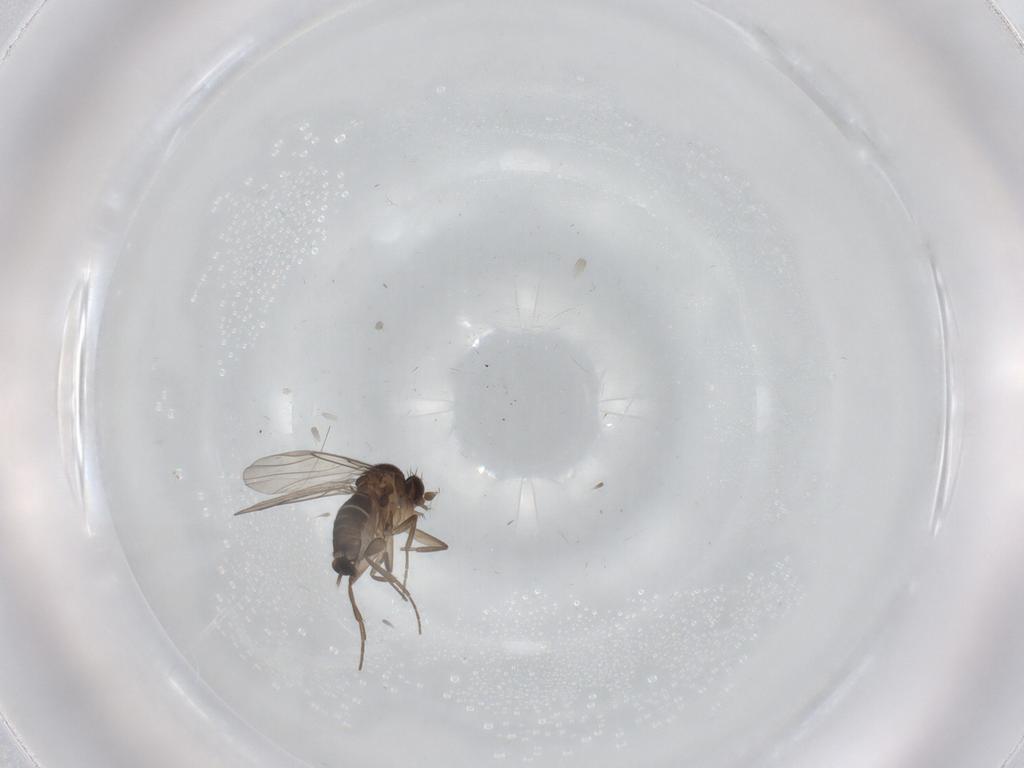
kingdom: Animalia
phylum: Arthropoda
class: Insecta
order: Diptera
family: Phoridae
